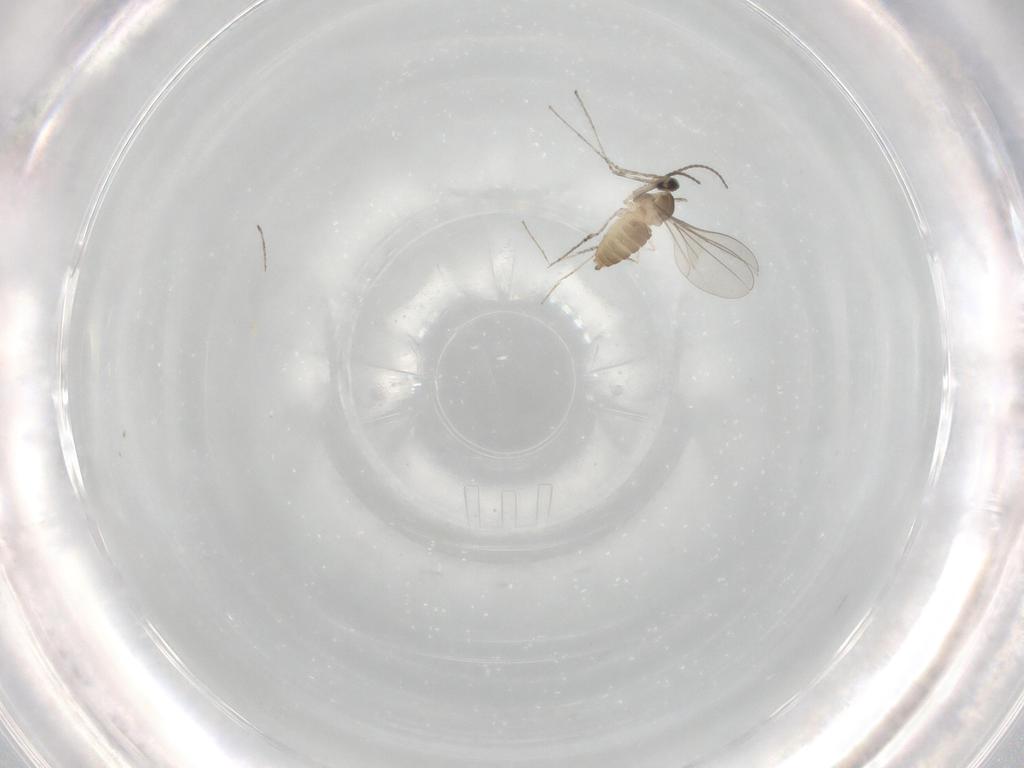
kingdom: Animalia
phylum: Arthropoda
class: Insecta
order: Diptera
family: Cecidomyiidae
